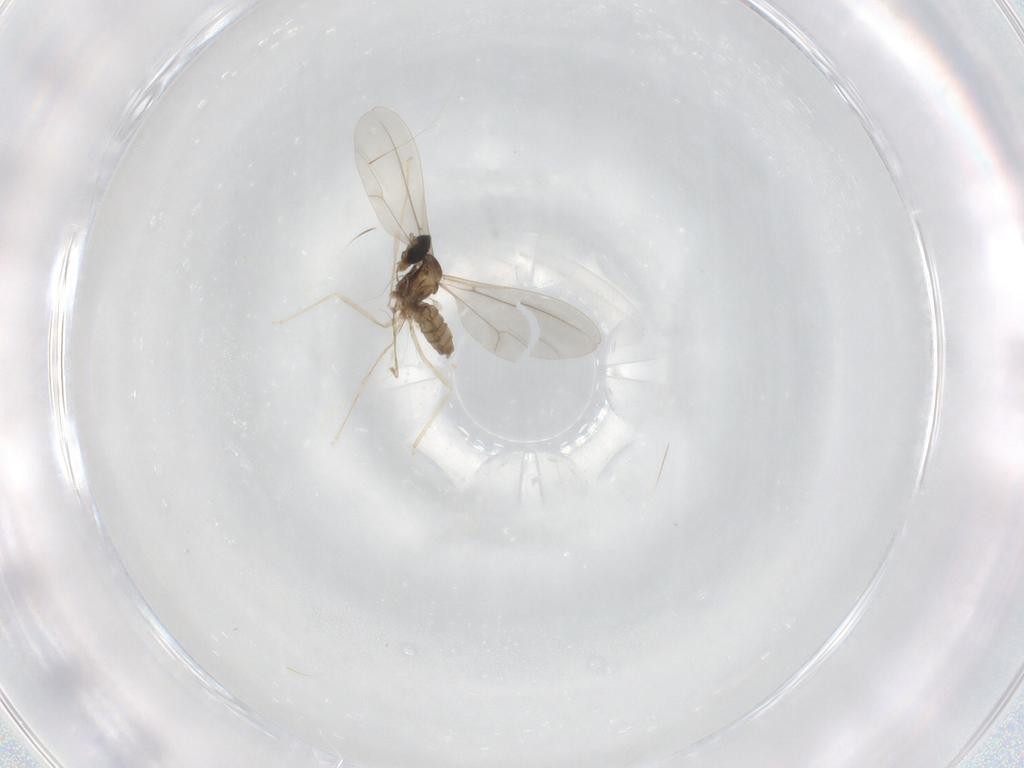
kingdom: Animalia
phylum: Arthropoda
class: Insecta
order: Diptera
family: Cecidomyiidae
